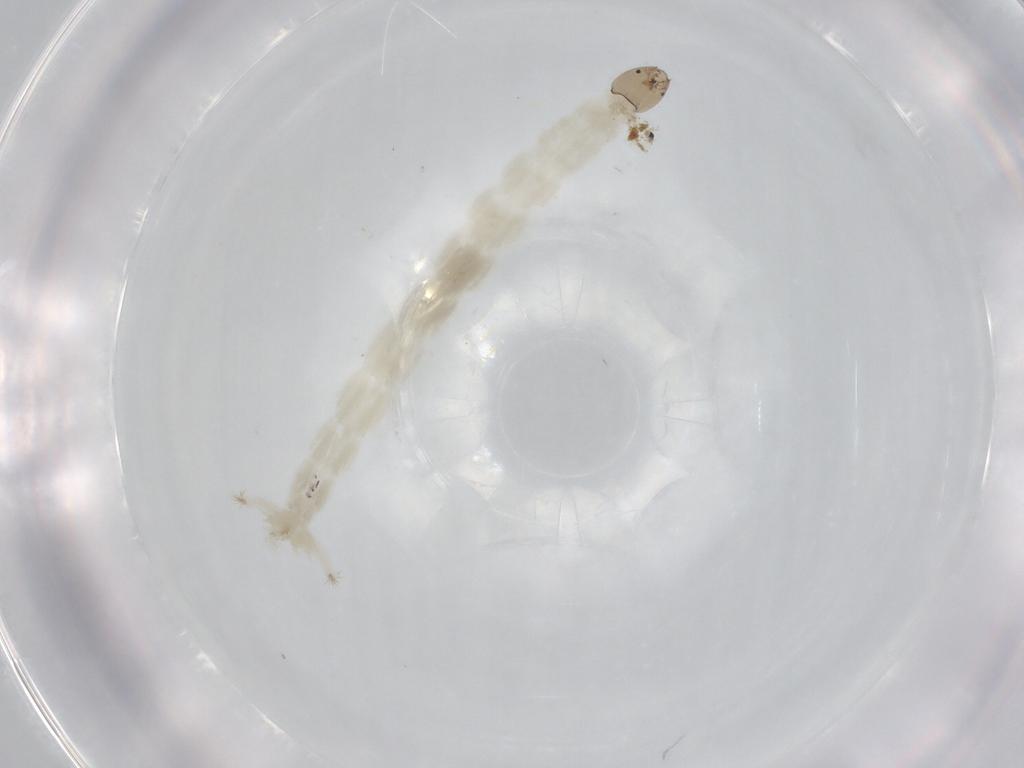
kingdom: Animalia
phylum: Arthropoda
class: Insecta
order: Diptera
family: Chironomidae
